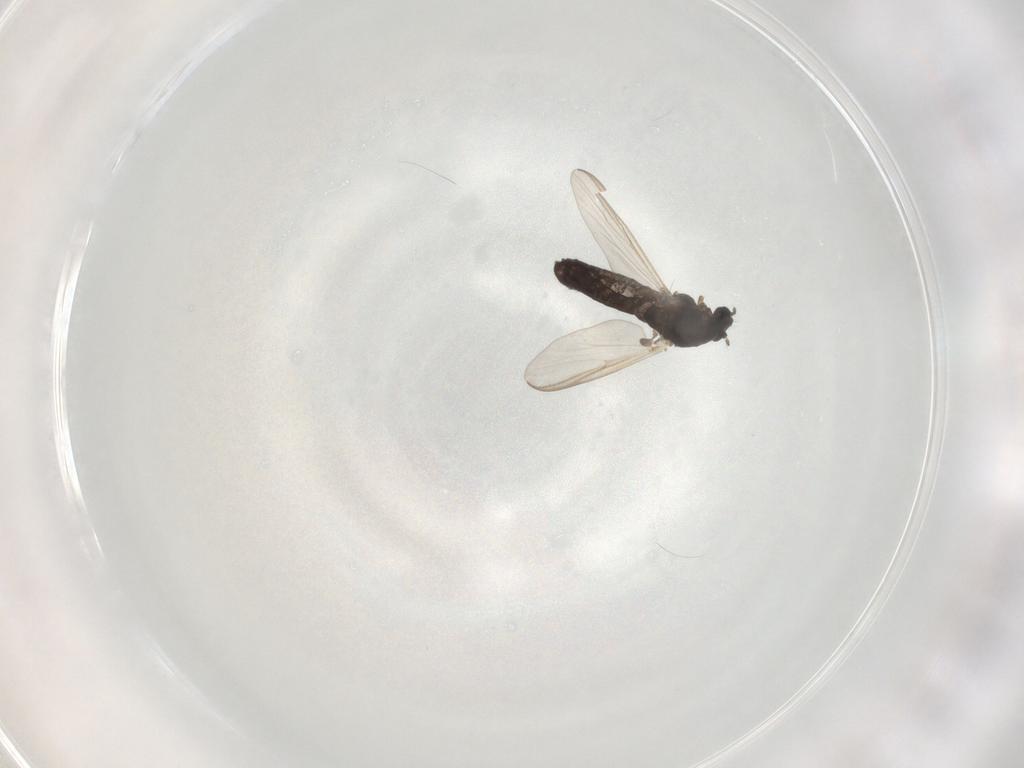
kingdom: Animalia
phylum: Arthropoda
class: Insecta
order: Diptera
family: Chironomidae
